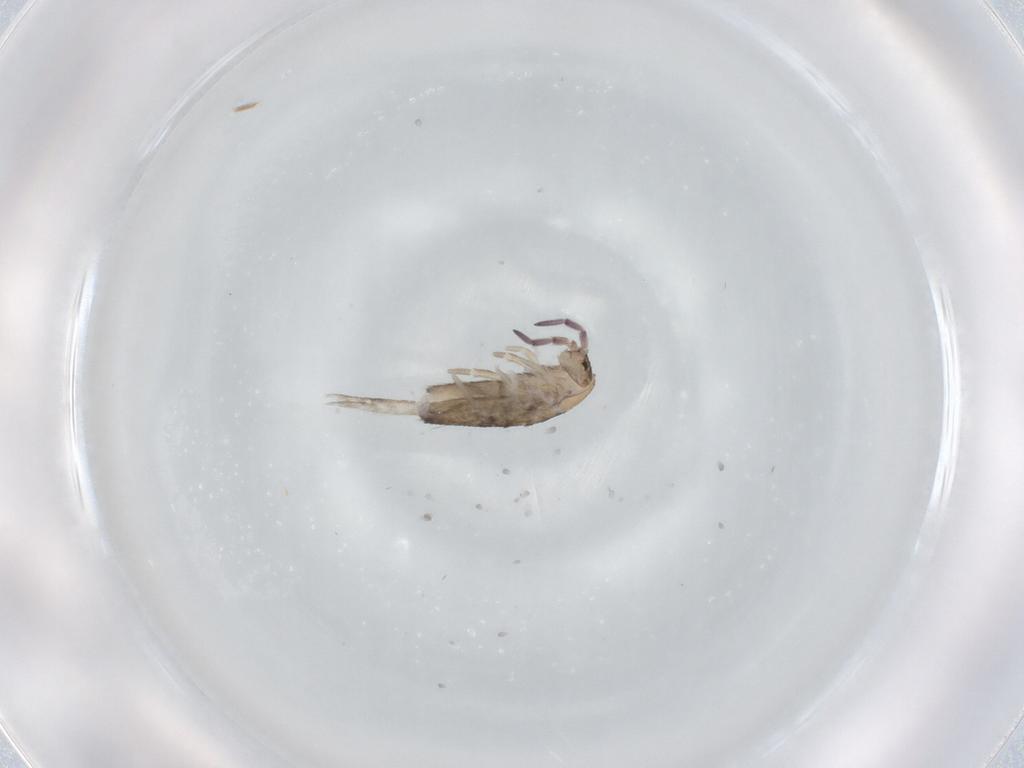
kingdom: Animalia
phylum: Arthropoda
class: Collembola
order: Entomobryomorpha
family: Entomobryidae
